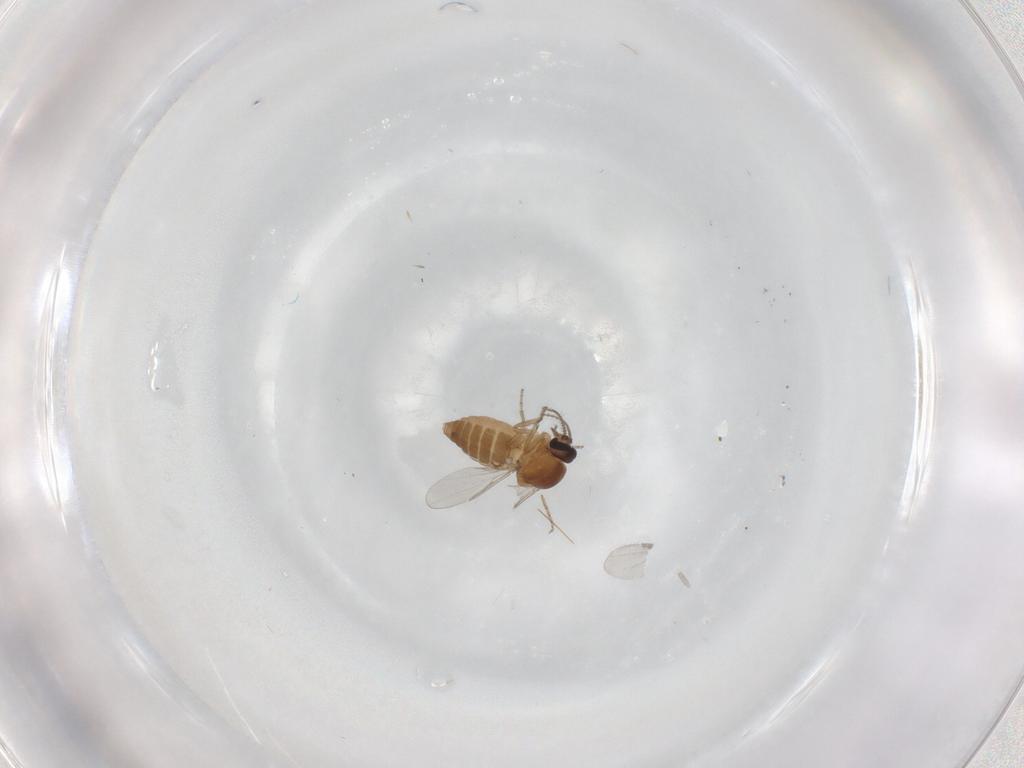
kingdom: Animalia
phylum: Arthropoda
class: Insecta
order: Diptera
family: Ceratopogonidae
